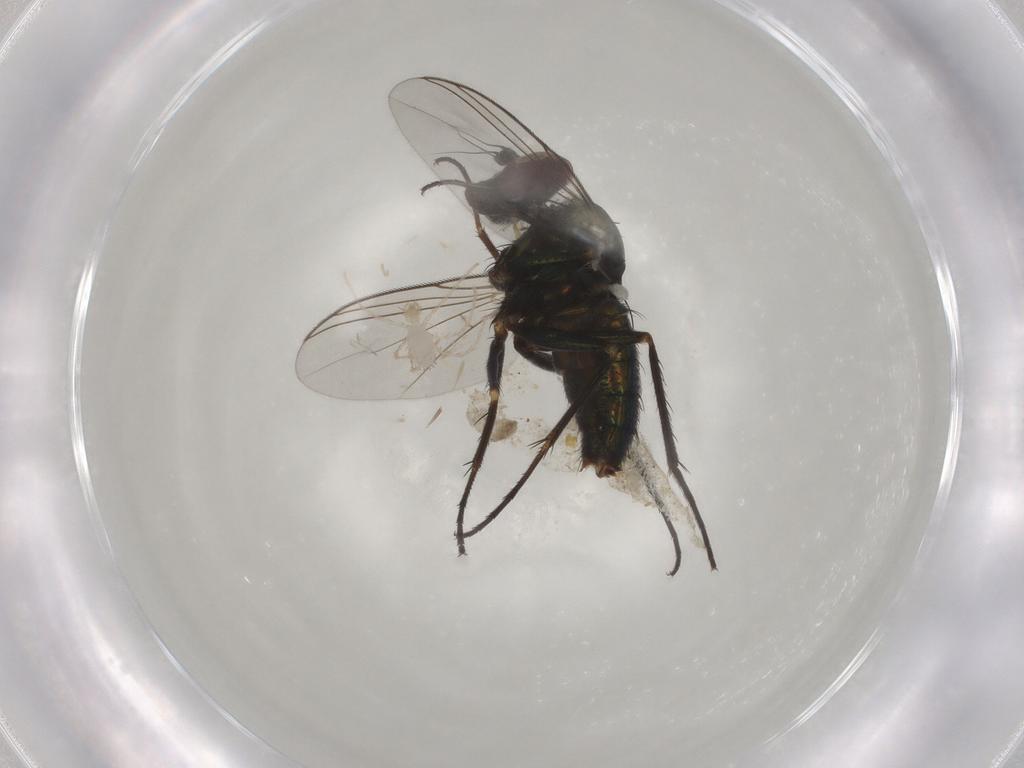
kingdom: Animalia
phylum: Arthropoda
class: Insecta
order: Diptera
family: Dolichopodidae
